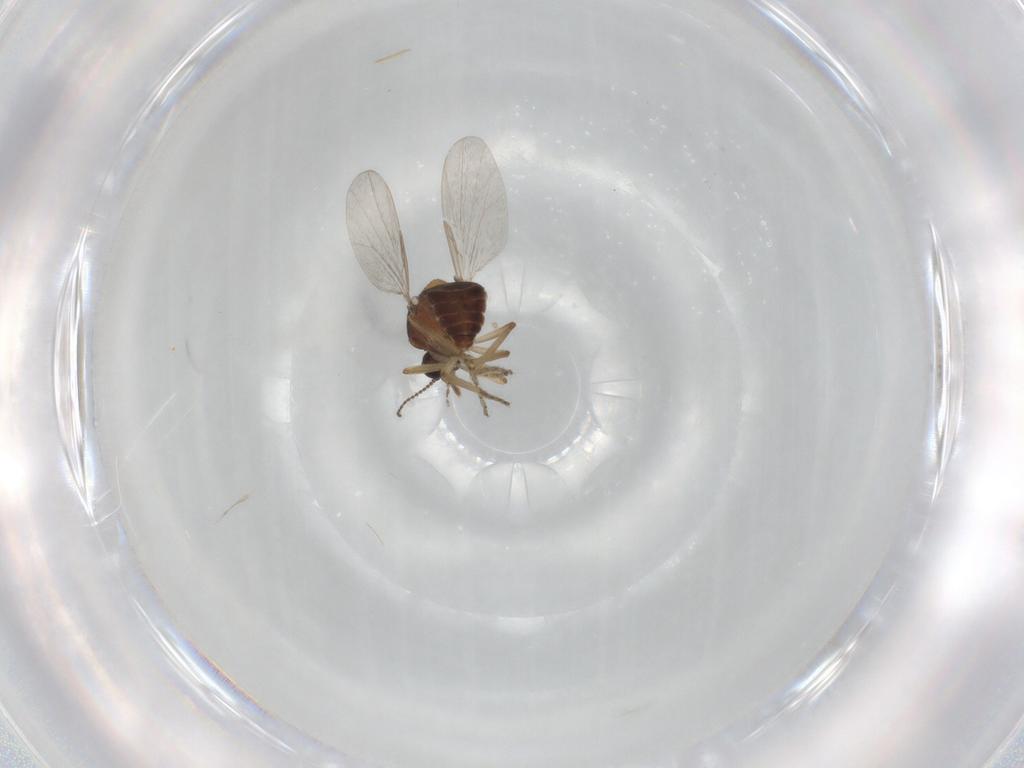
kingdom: Animalia
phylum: Arthropoda
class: Insecta
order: Diptera
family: Ceratopogonidae
